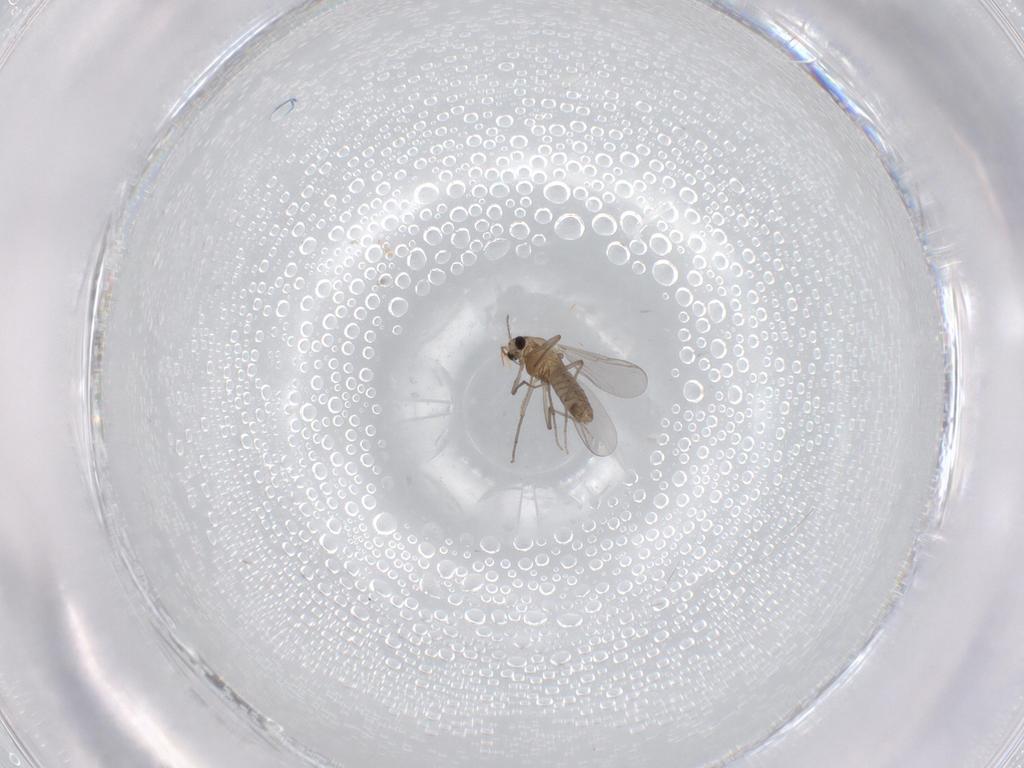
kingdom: Animalia
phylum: Arthropoda
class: Insecta
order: Diptera
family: Chironomidae
